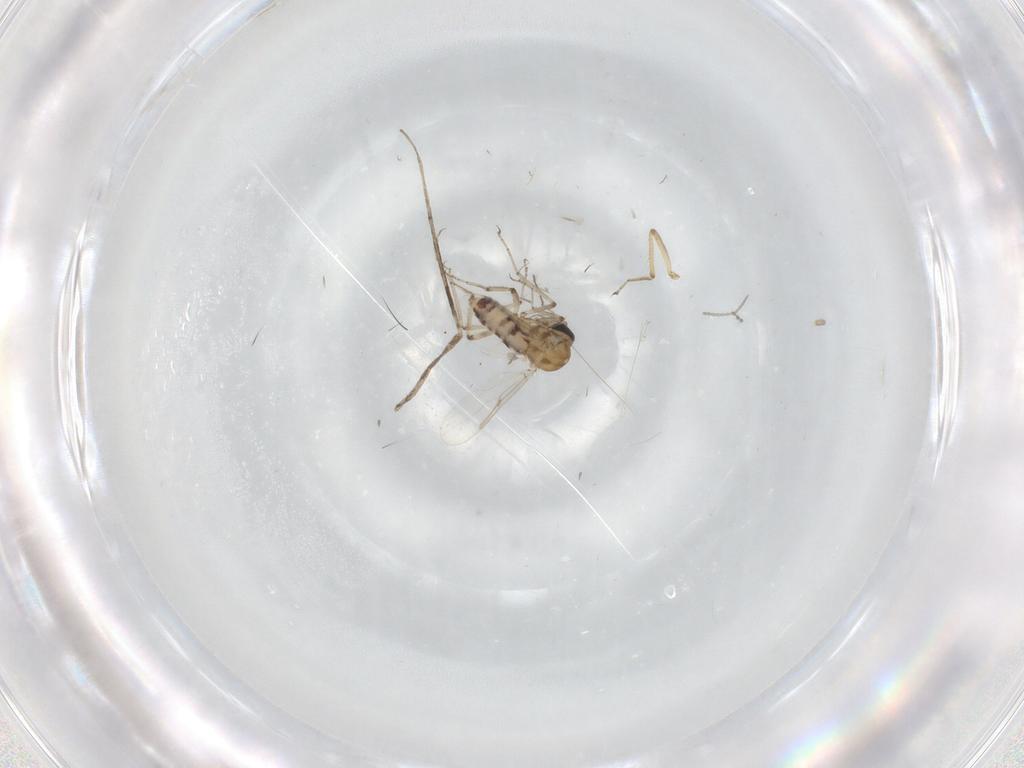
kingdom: Animalia
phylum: Arthropoda
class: Insecta
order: Diptera
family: Ceratopogonidae
